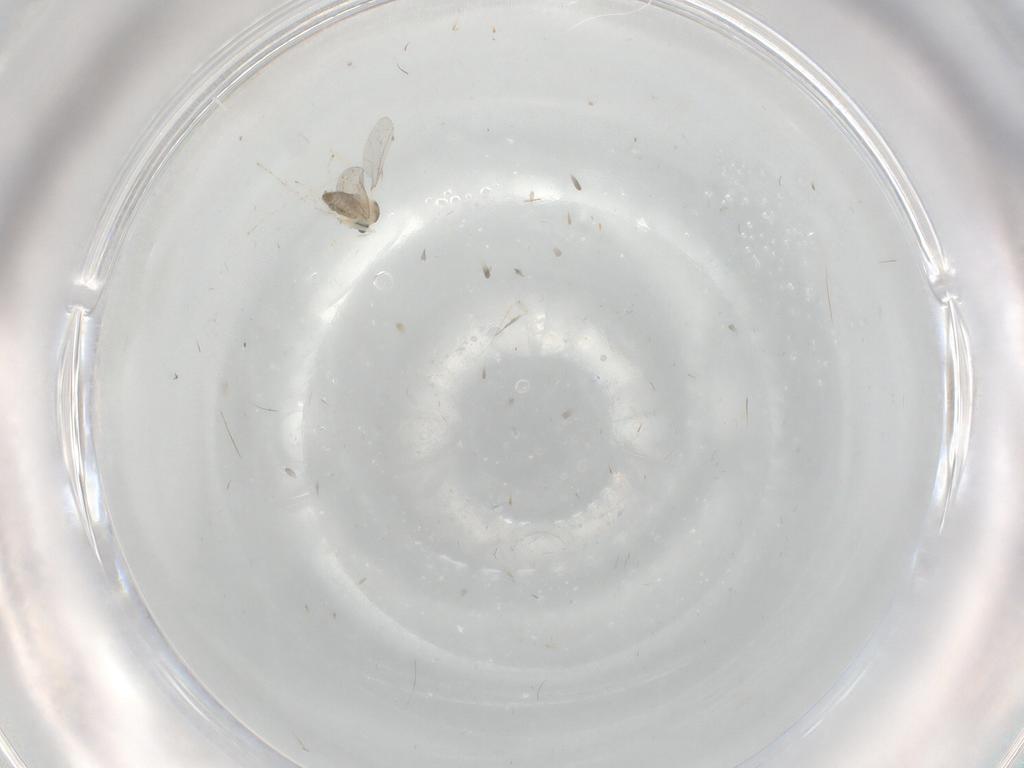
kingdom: Animalia
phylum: Arthropoda
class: Insecta
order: Diptera
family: Cecidomyiidae
